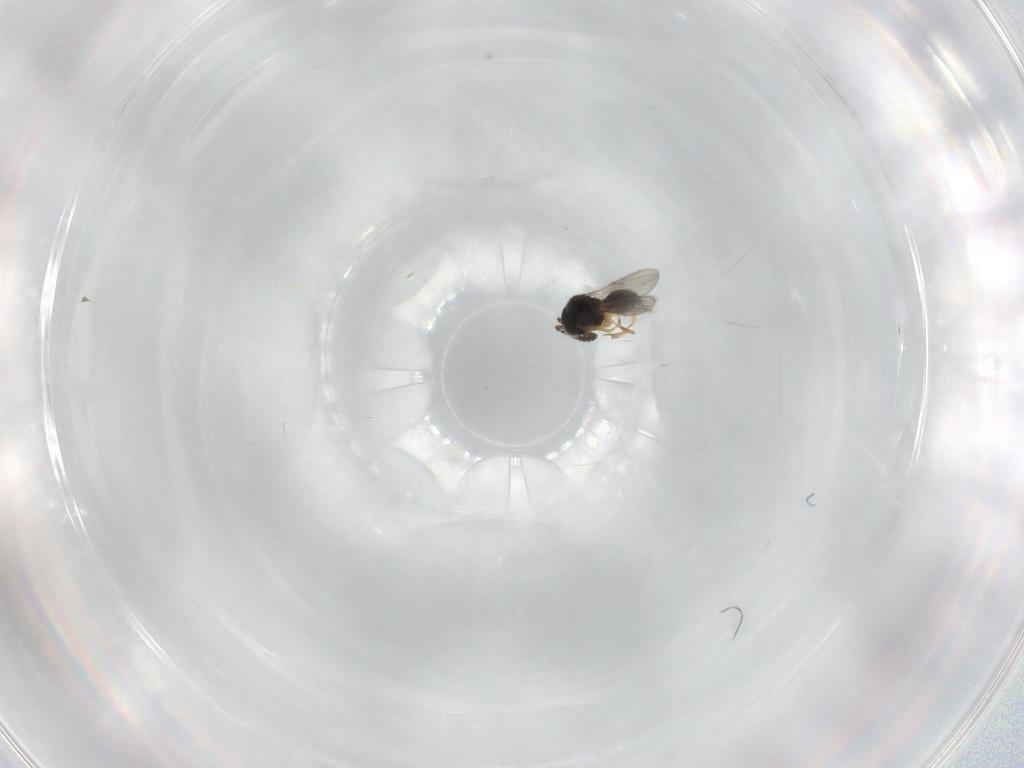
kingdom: Animalia
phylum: Arthropoda
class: Insecta
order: Hymenoptera
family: Scelionidae
